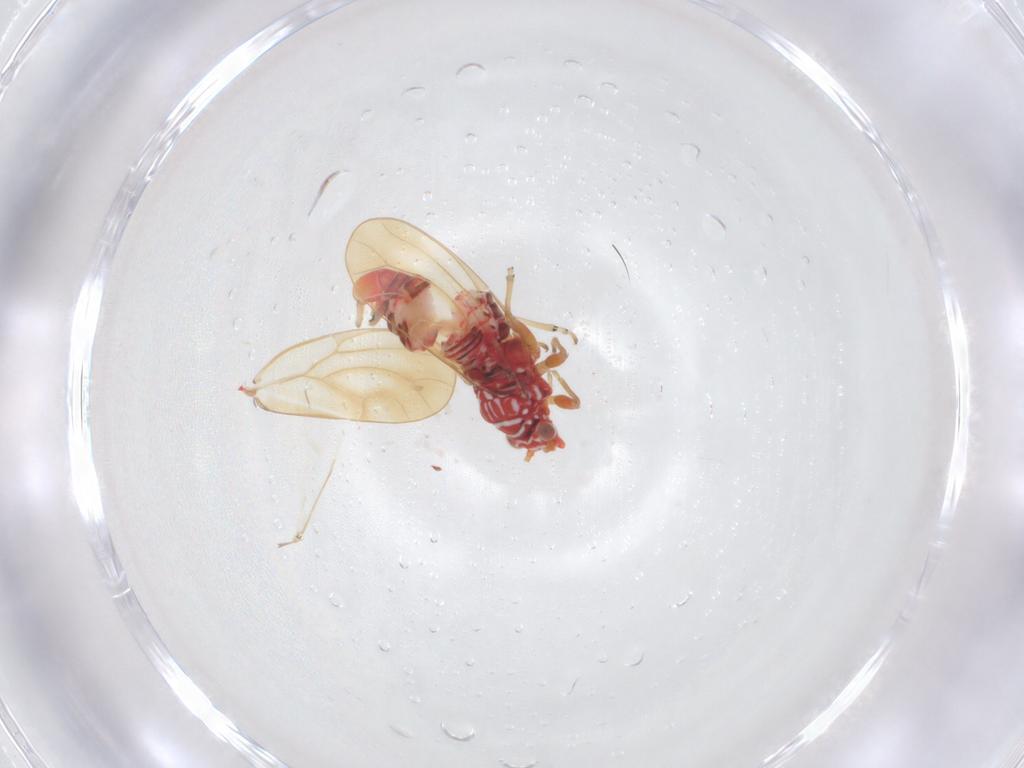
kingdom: Animalia
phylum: Arthropoda
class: Insecta
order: Hemiptera
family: Psyllidae
